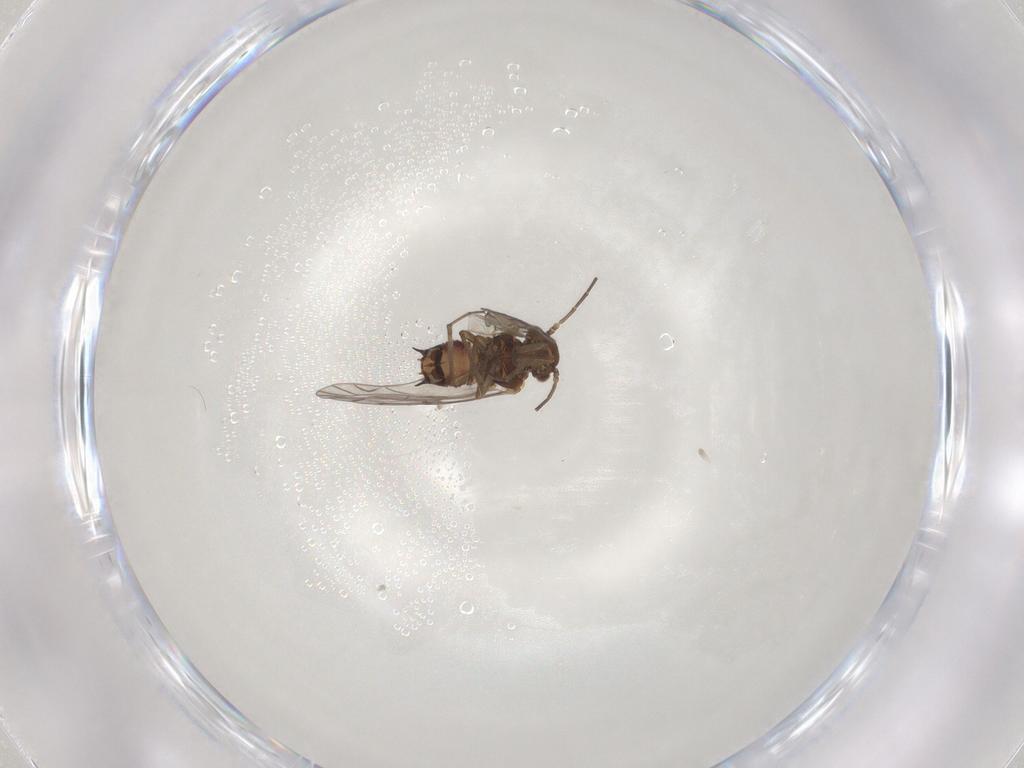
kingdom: Animalia
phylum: Arthropoda
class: Insecta
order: Psocodea
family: Lachesillidae
